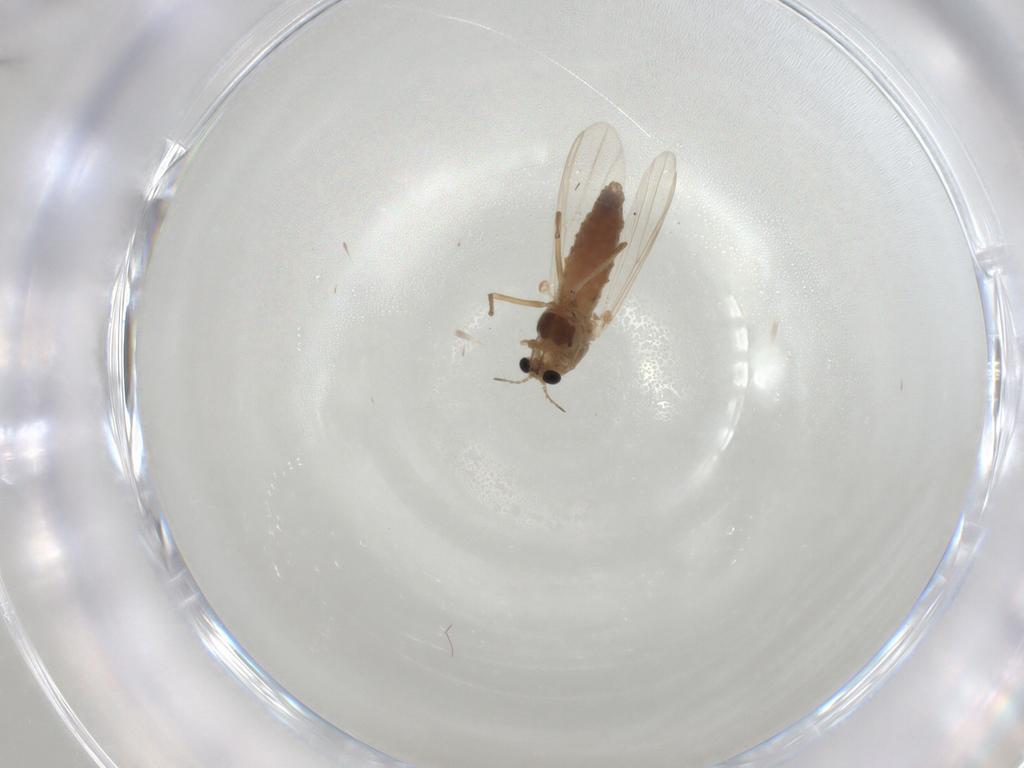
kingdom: Animalia
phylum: Arthropoda
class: Insecta
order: Diptera
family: Chironomidae
